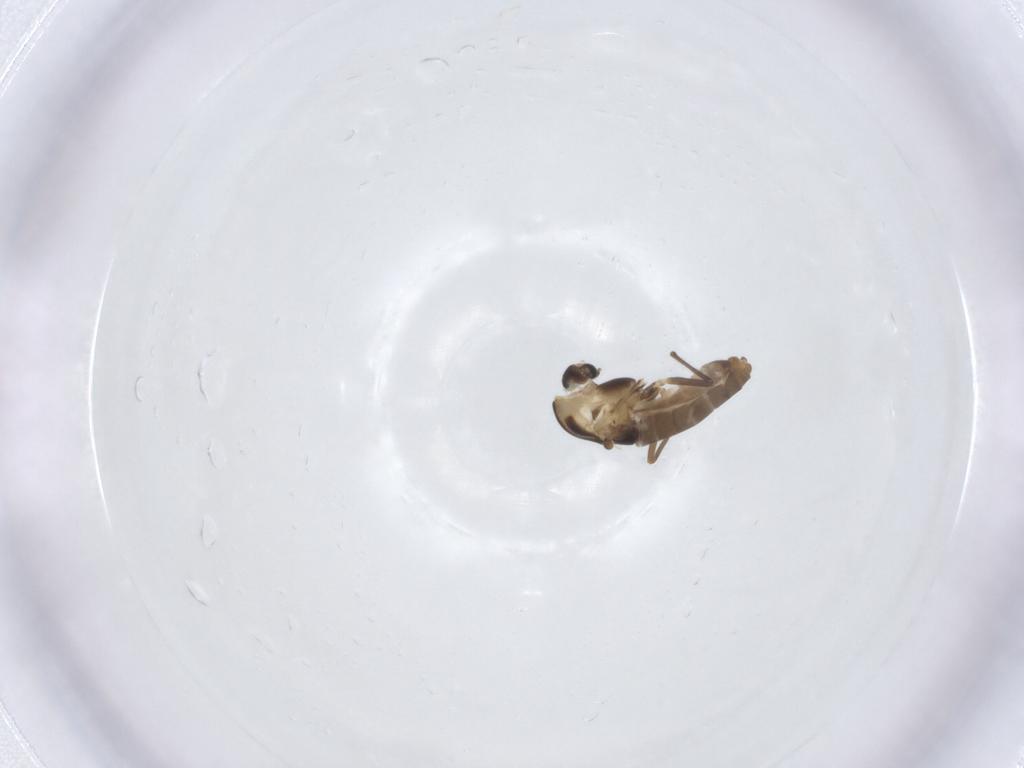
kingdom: Animalia
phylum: Arthropoda
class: Insecta
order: Diptera
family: Chironomidae
